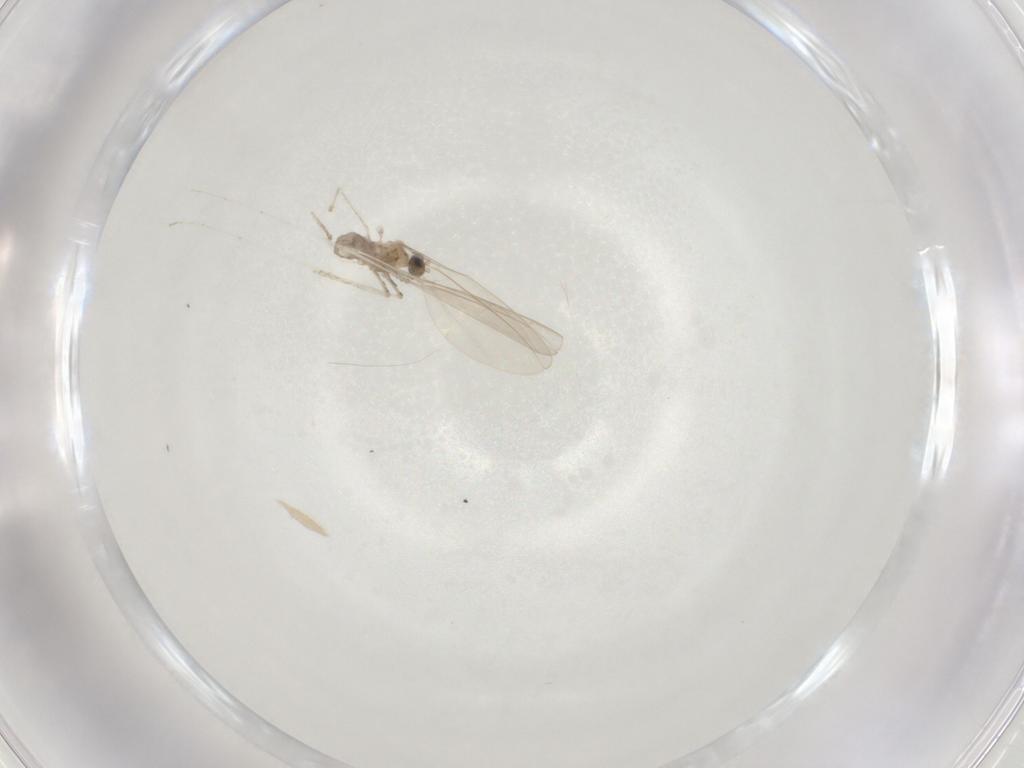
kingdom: Animalia
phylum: Arthropoda
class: Insecta
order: Diptera
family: Cecidomyiidae
